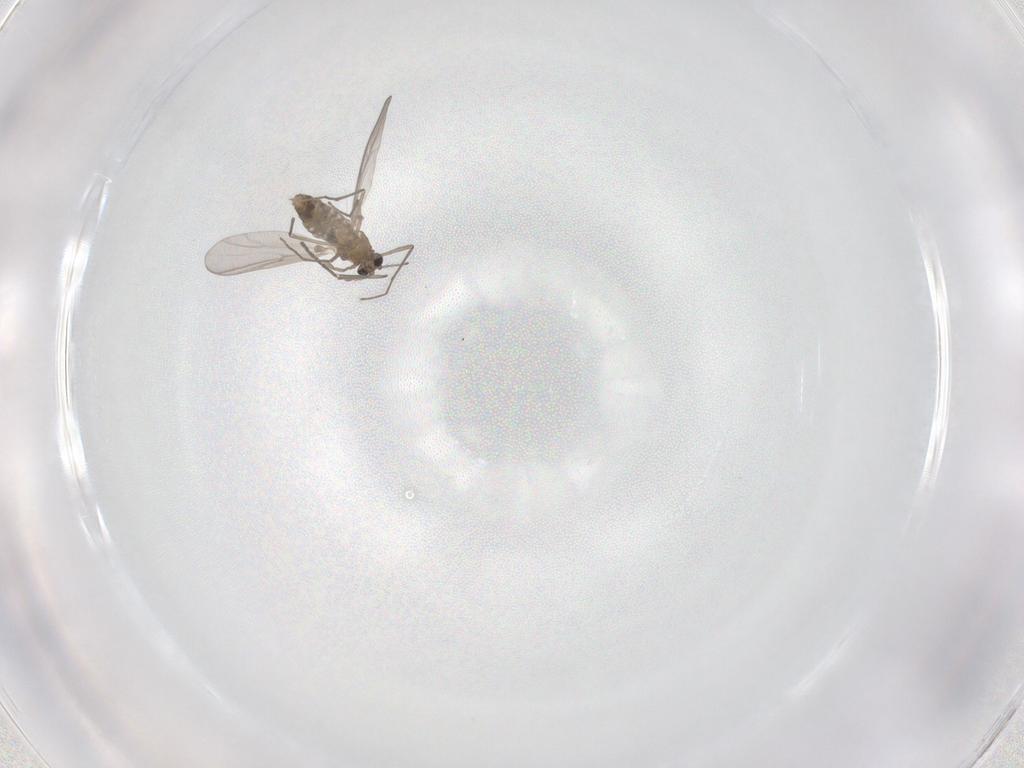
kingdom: Animalia
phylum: Arthropoda
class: Insecta
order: Diptera
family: Sciaridae
